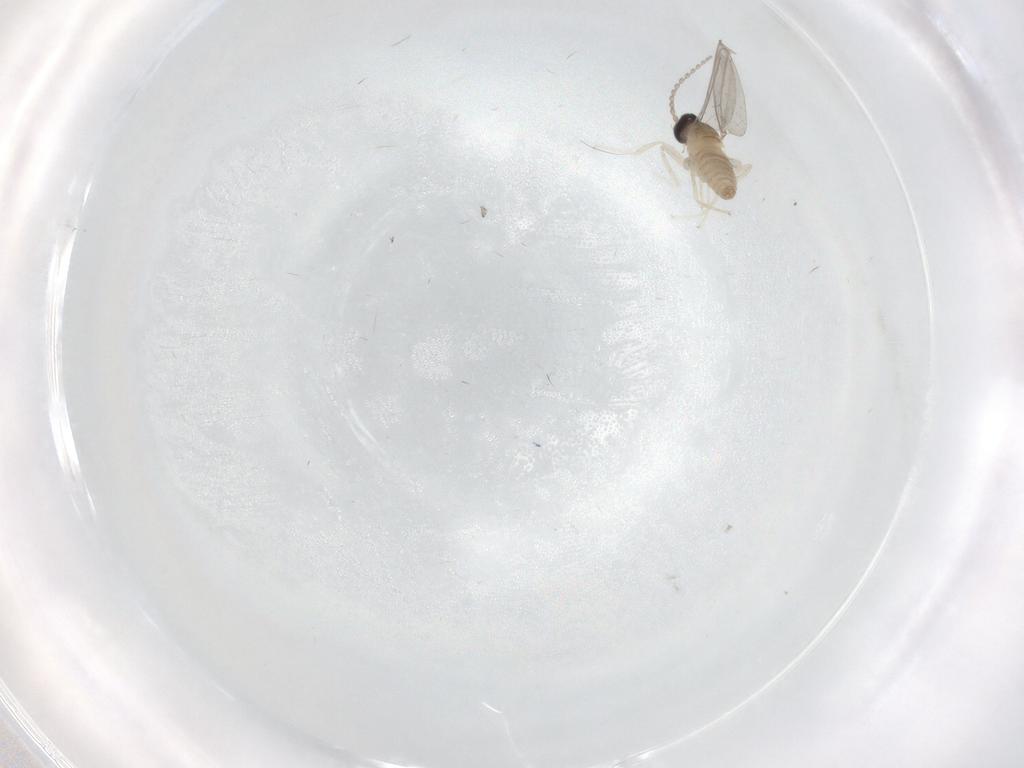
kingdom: Animalia
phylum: Arthropoda
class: Insecta
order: Diptera
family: Cecidomyiidae
